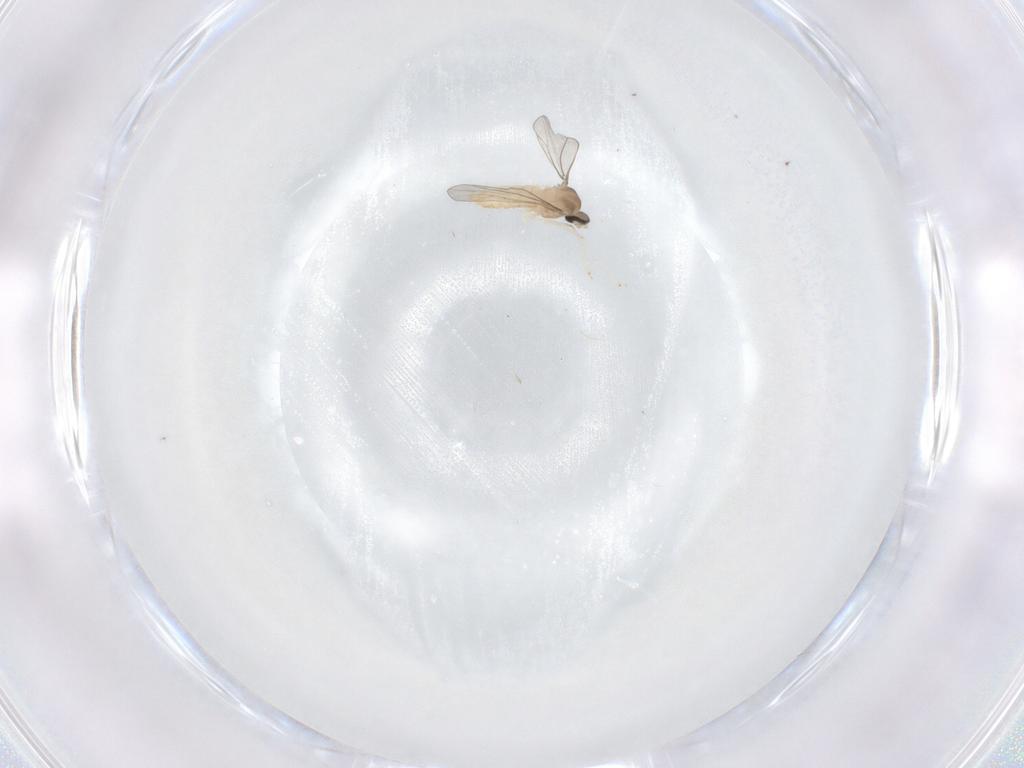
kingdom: Animalia
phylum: Arthropoda
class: Insecta
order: Diptera
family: Cecidomyiidae
